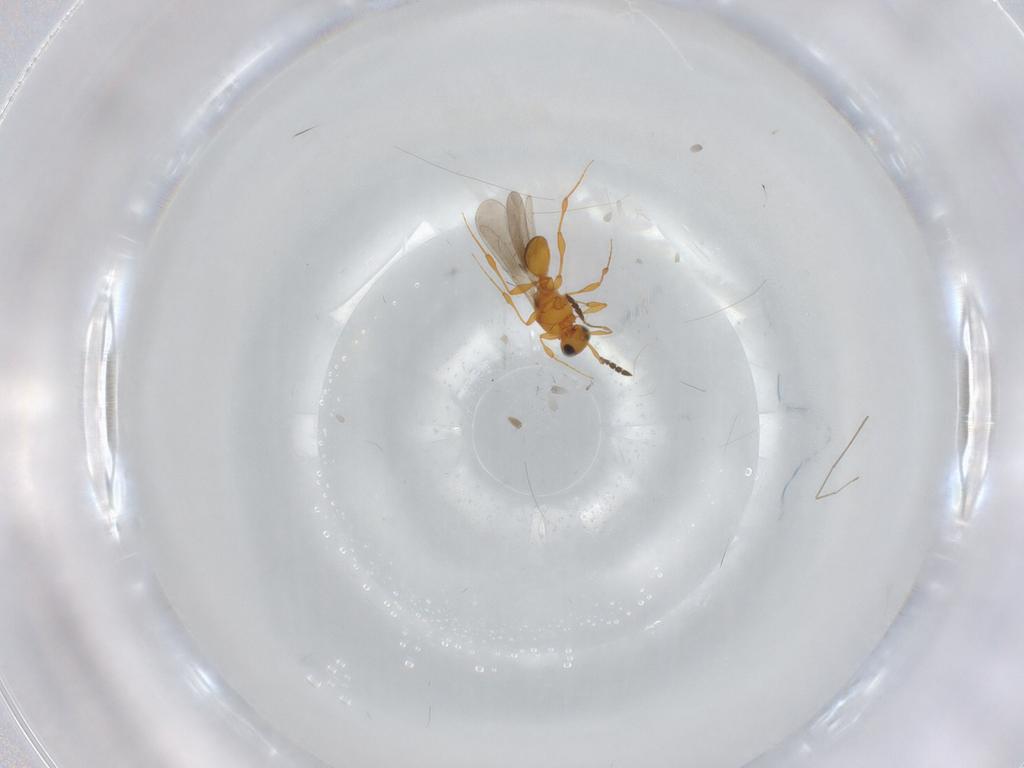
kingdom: Animalia
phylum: Arthropoda
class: Insecta
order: Hymenoptera
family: Platygastridae
